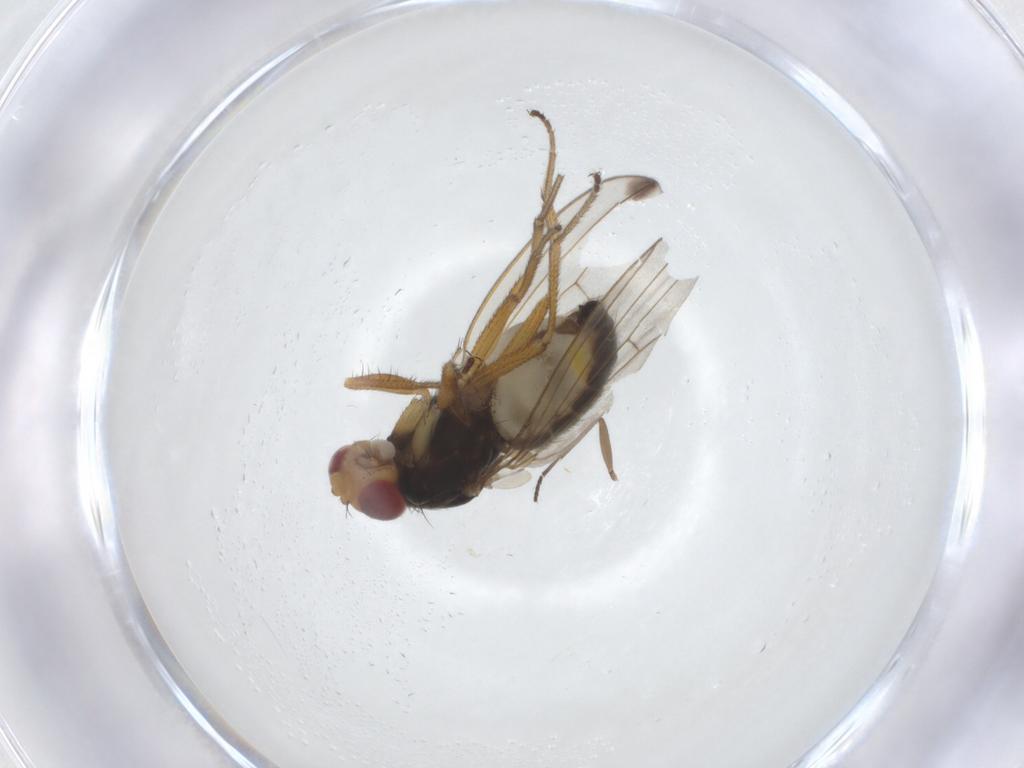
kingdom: Animalia
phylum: Arthropoda
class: Insecta
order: Diptera
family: Drosophilidae
